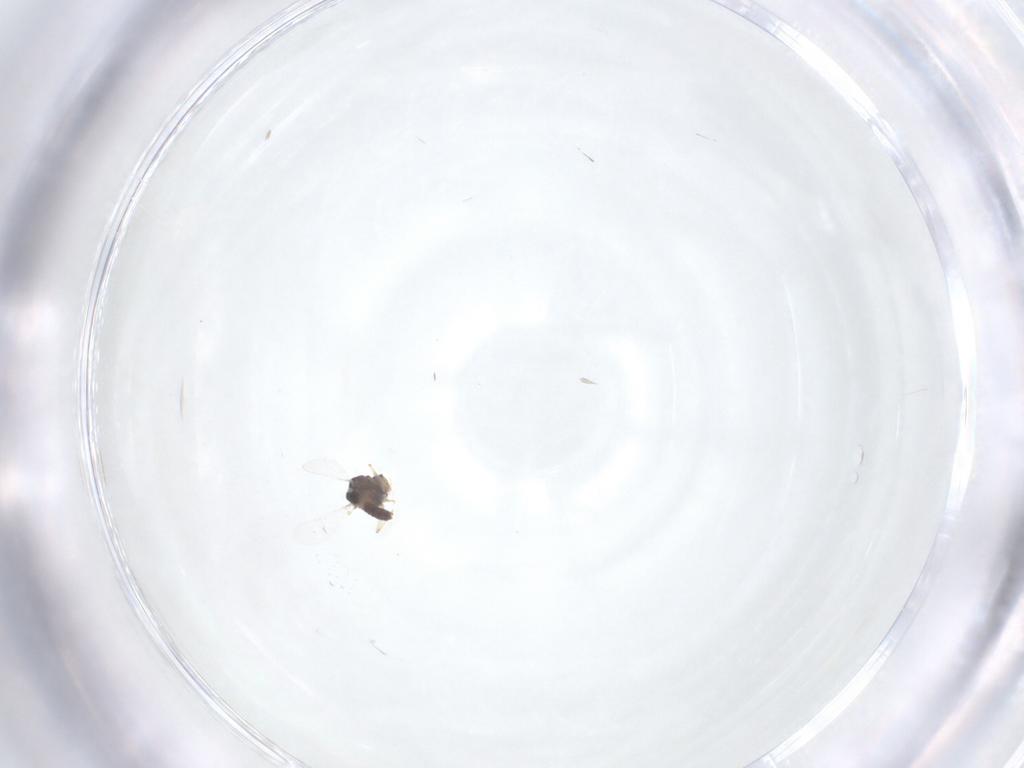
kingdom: Animalia
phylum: Arthropoda
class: Insecta
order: Diptera
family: Chironomidae
